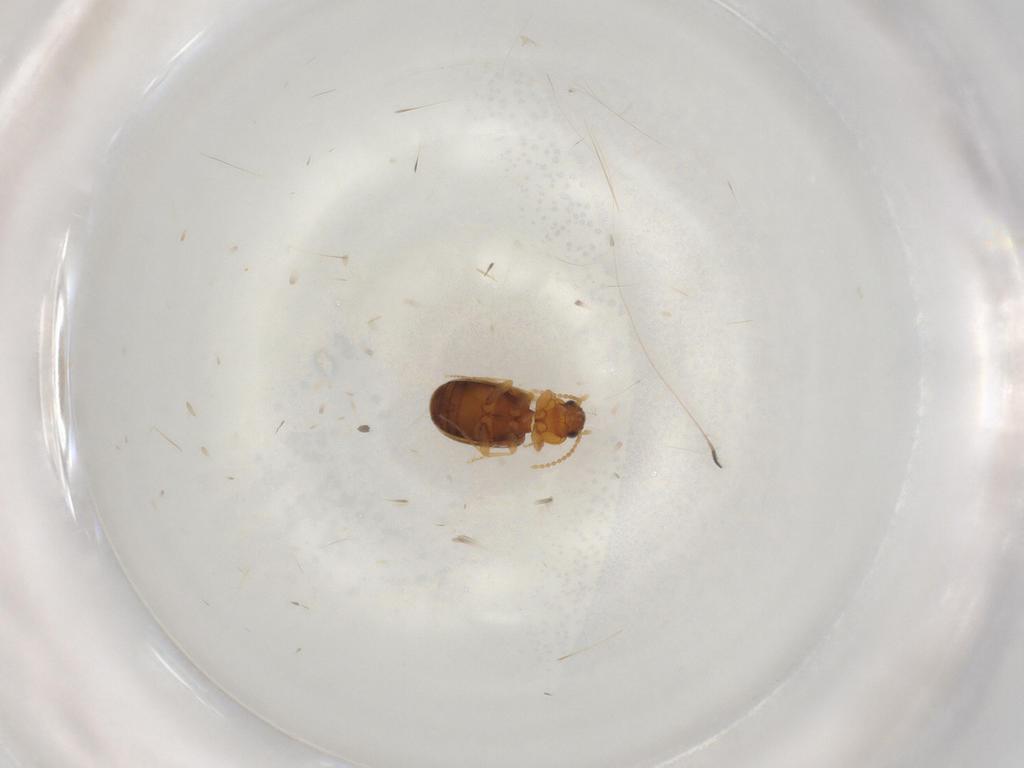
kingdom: Animalia
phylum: Arthropoda
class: Insecta
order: Coleoptera
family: Carabidae
